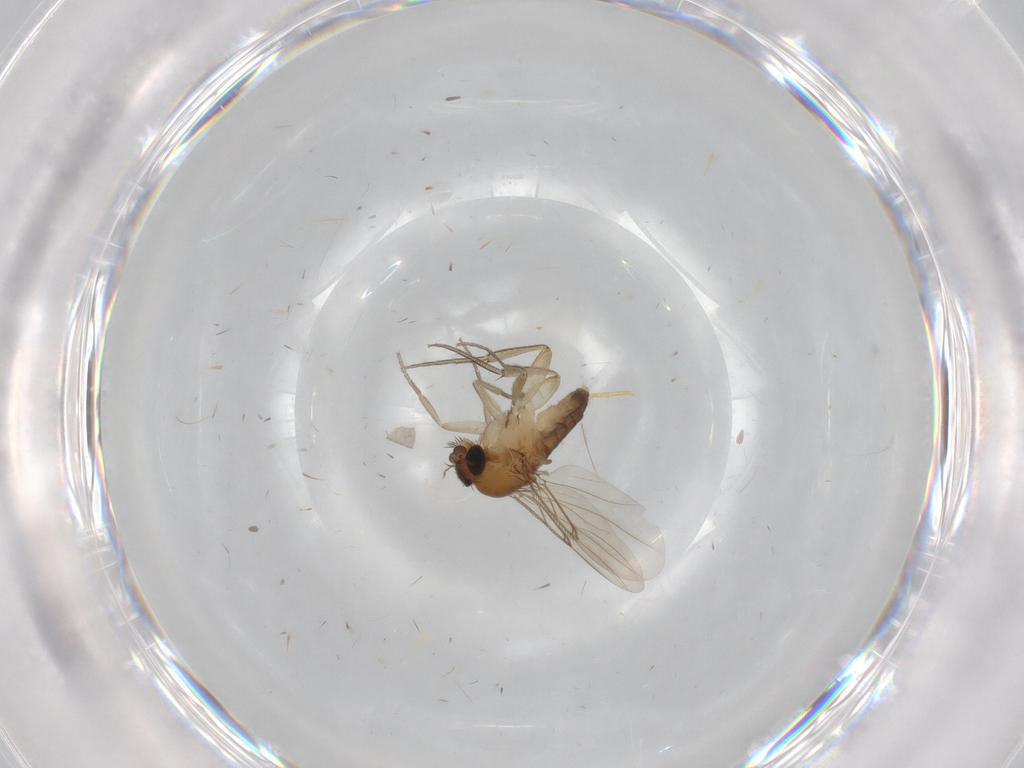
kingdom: Animalia
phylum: Arthropoda
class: Insecta
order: Diptera
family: Phoridae
